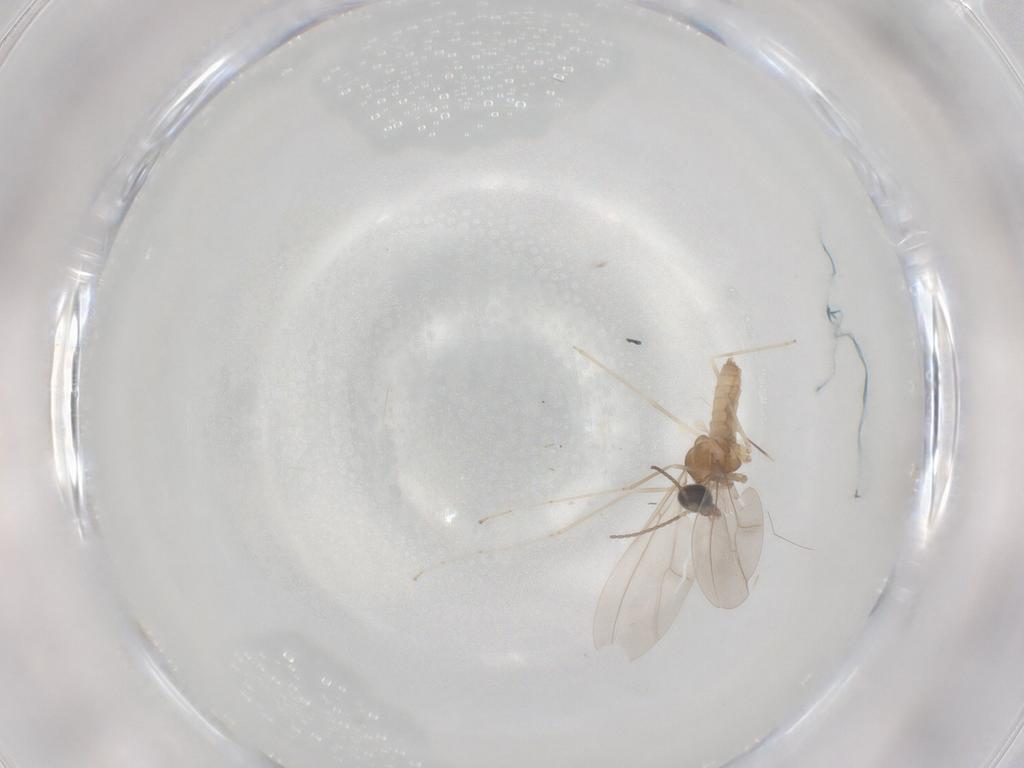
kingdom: Animalia
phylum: Arthropoda
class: Insecta
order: Diptera
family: Cecidomyiidae
